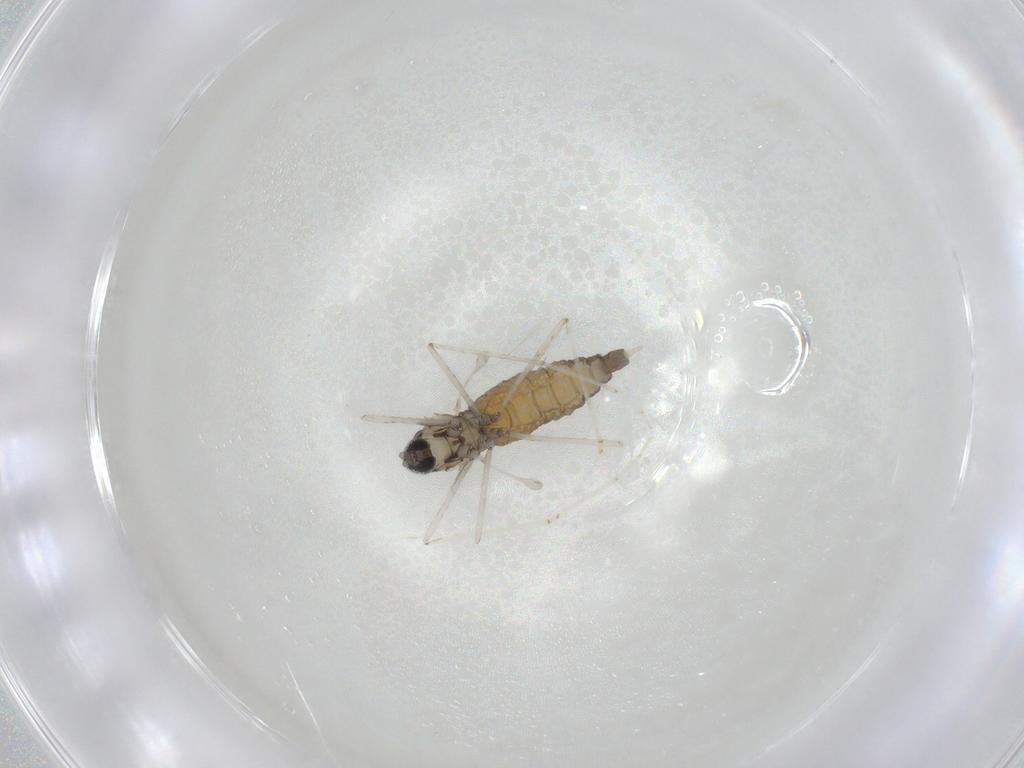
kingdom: Animalia
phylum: Arthropoda
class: Insecta
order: Diptera
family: Cecidomyiidae
